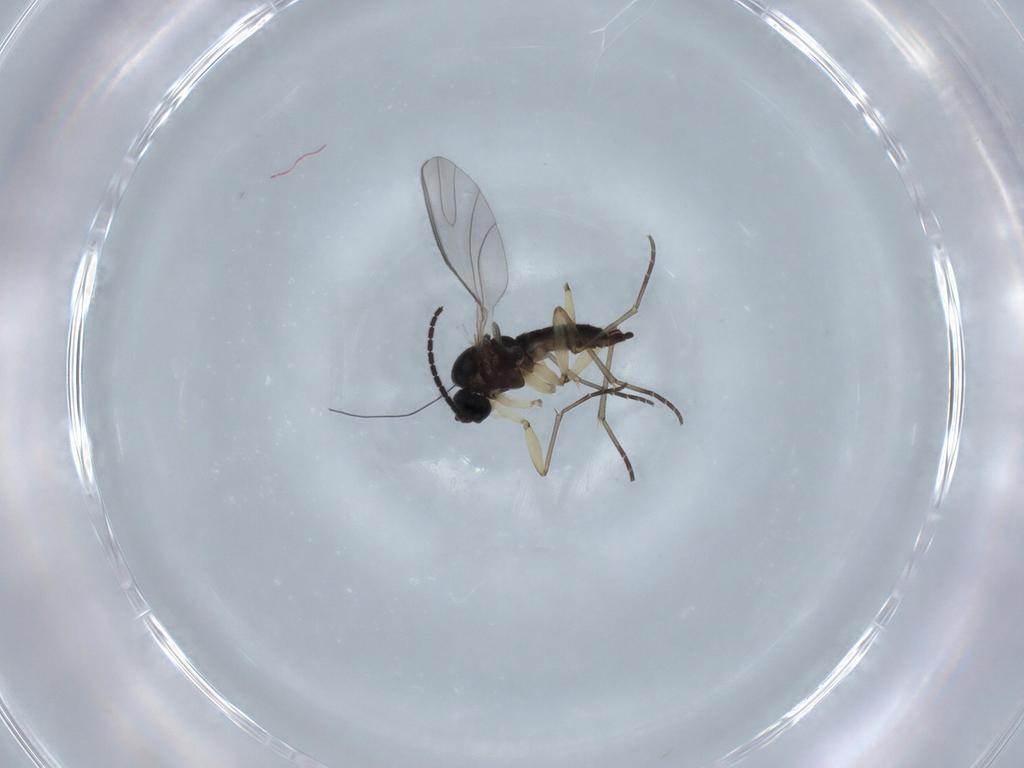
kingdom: Animalia
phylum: Arthropoda
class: Insecta
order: Diptera
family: Sciaridae
